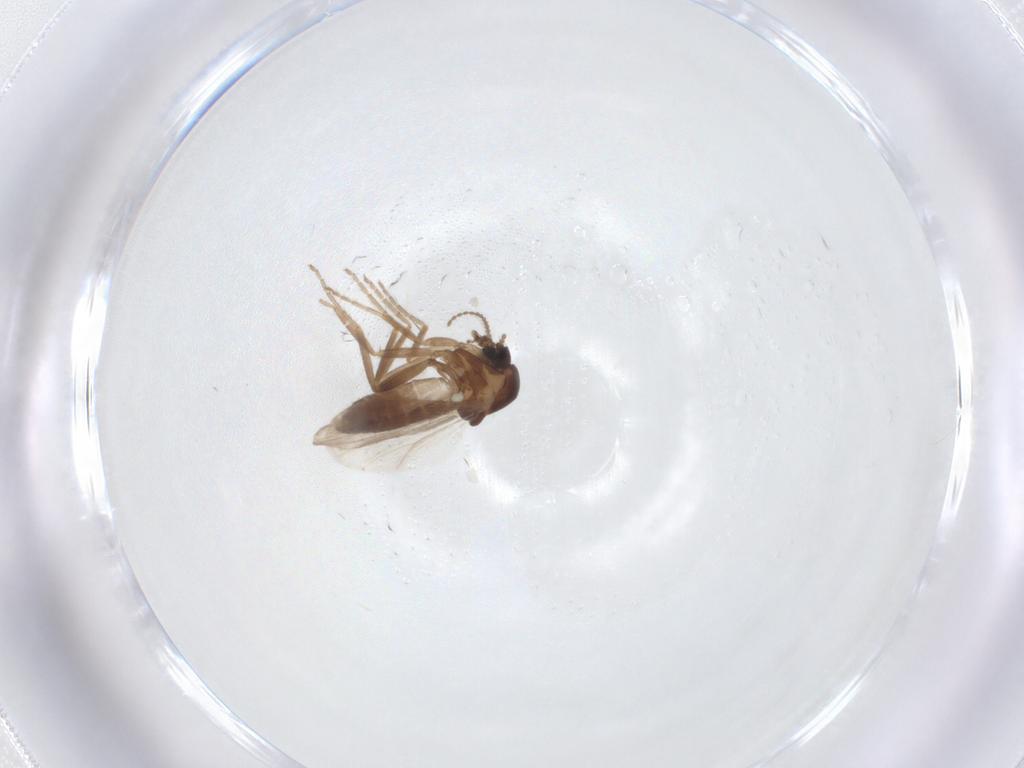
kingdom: Animalia
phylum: Arthropoda
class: Insecta
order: Diptera
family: Ceratopogonidae
